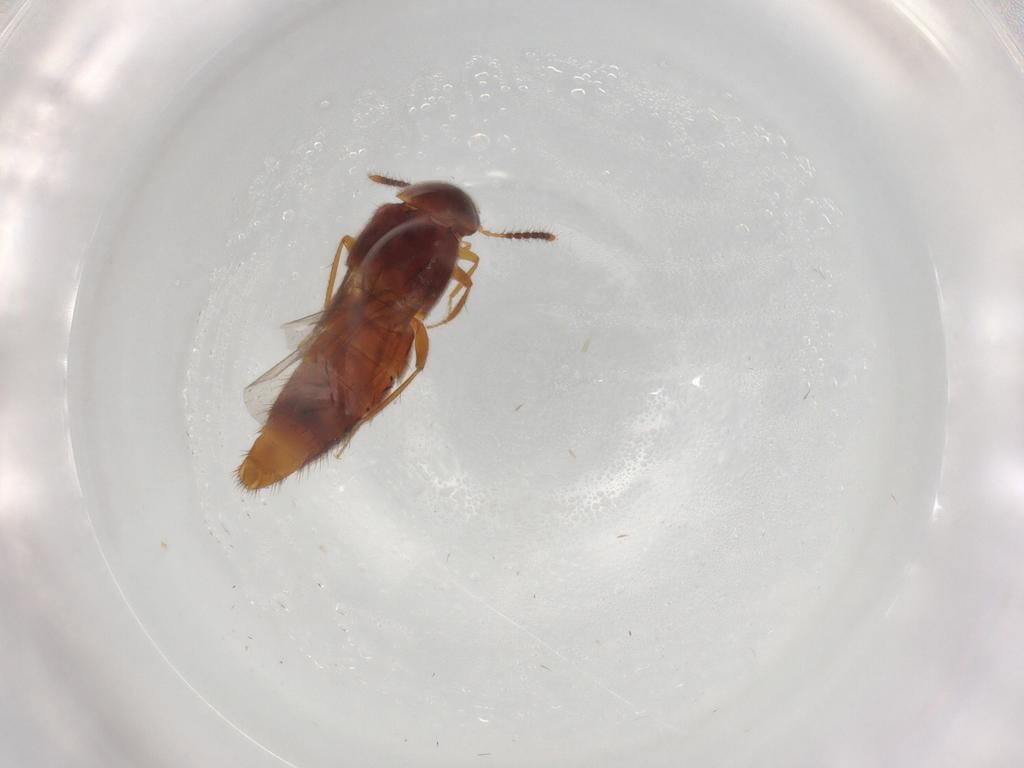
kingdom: Animalia
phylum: Arthropoda
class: Insecta
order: Coleoptera
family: Staphylinidae
